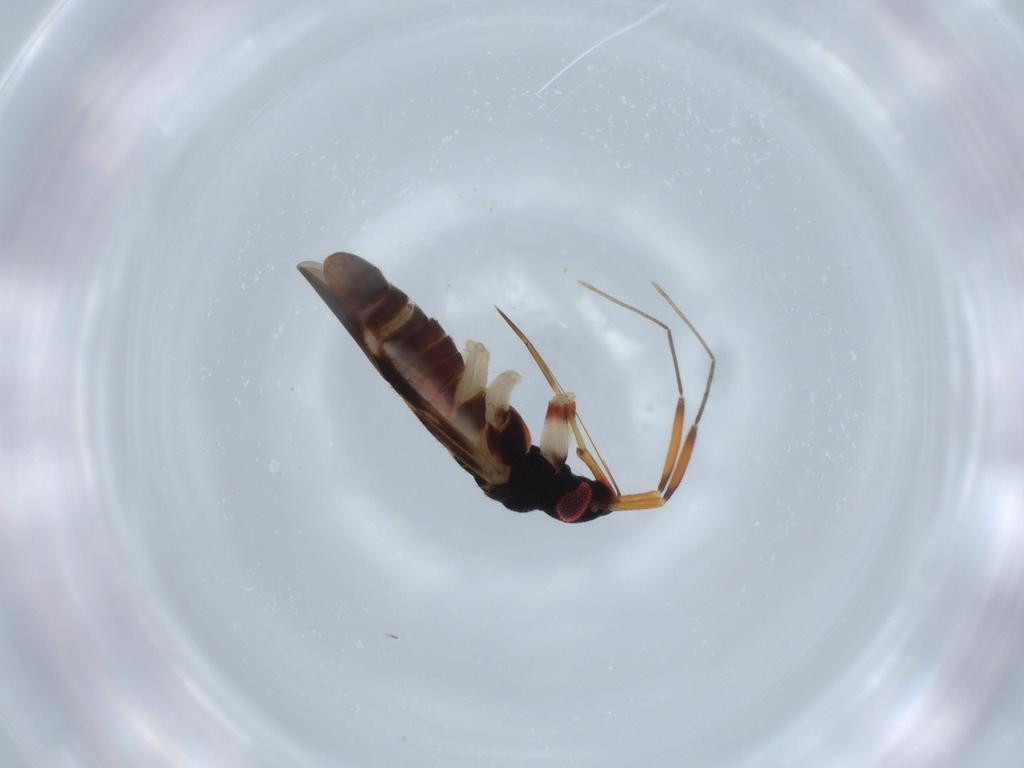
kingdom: Animalia
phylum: Arthropoda
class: Insecta
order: Hemiptera
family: Miridae
